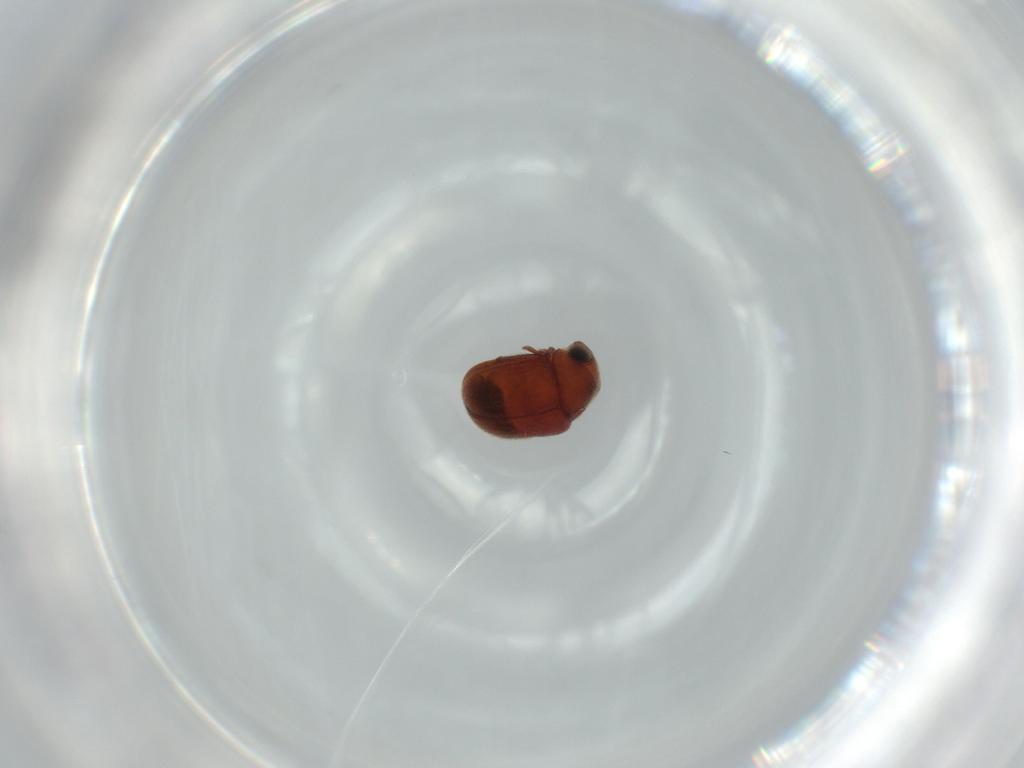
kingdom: Animalia
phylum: Arthropoda
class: Insecta
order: Coleoptera
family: Ptinidae
